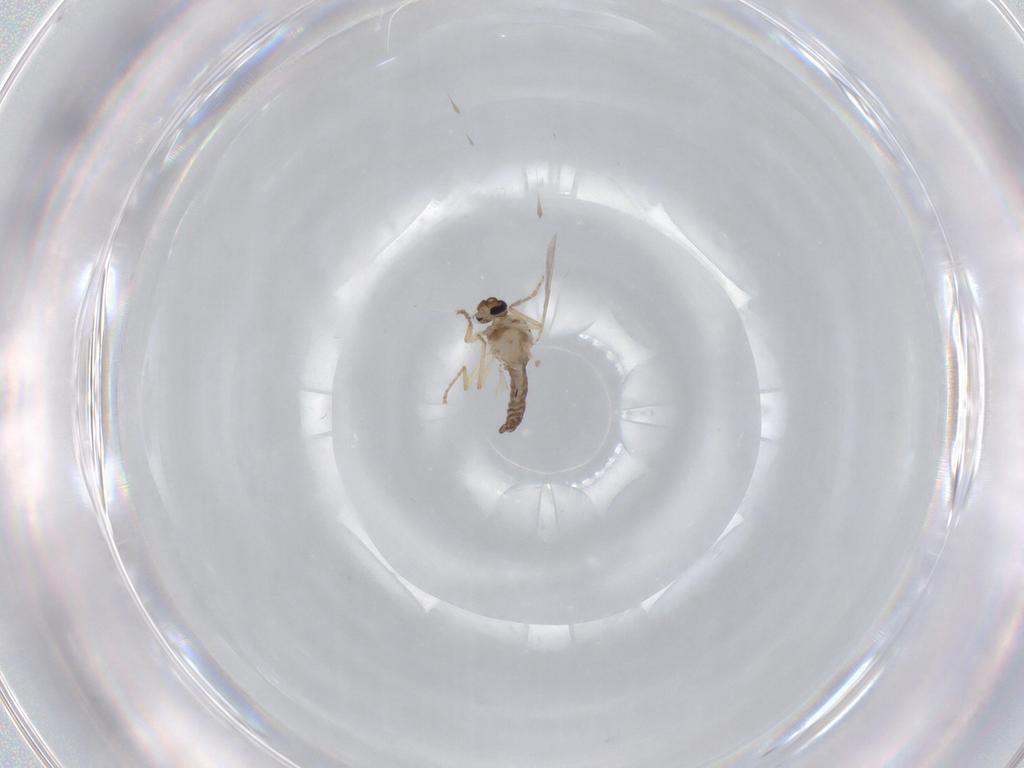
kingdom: Animalia
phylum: Arthropoda
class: Insecta
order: Diptera
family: Ceratopogonidae
